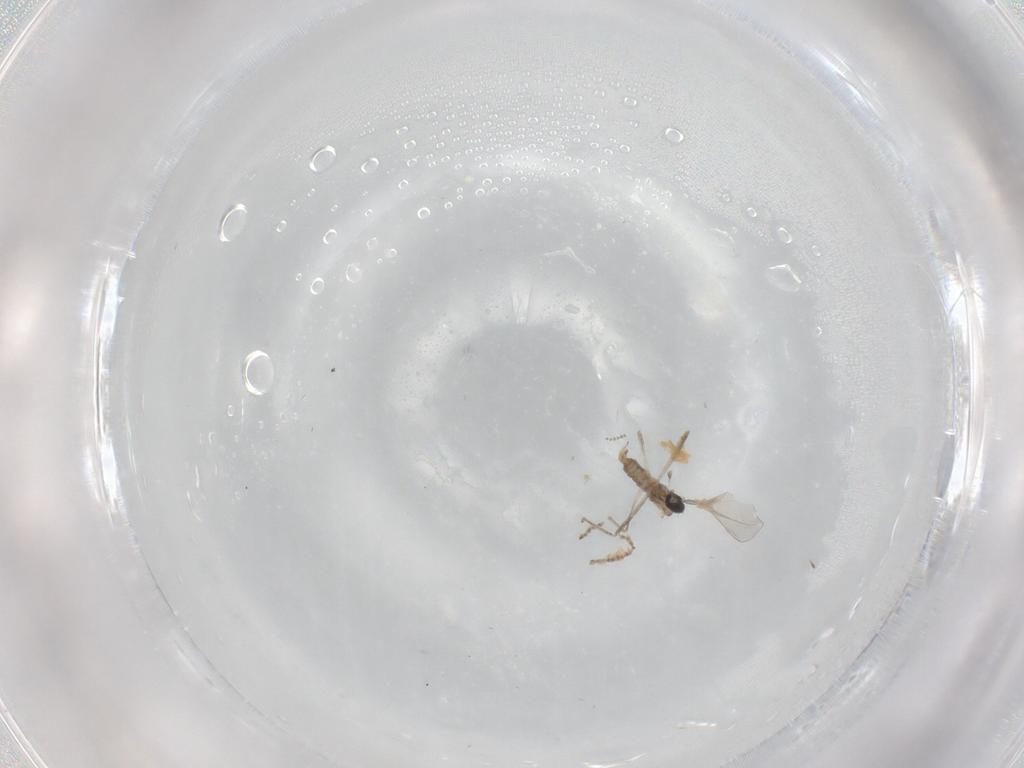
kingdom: Animalia
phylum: Arthropoda
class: Insecta
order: Diptera
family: Cecidomyiidae
